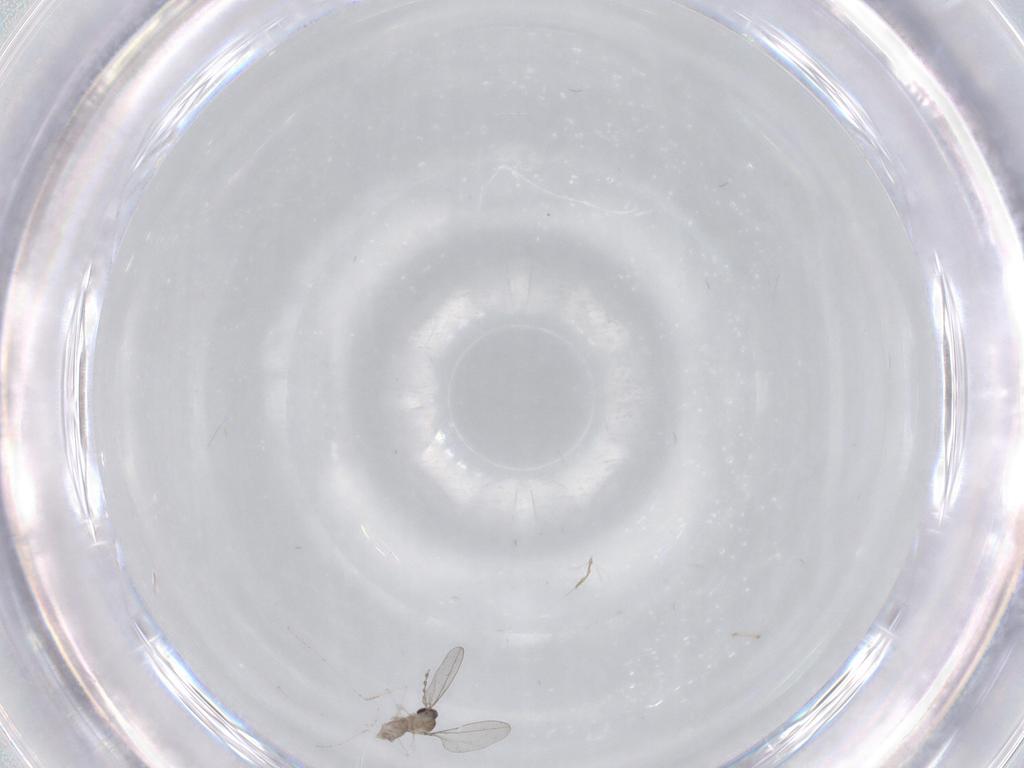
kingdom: Animalia
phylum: Arthropoda
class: Insecta
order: Diptera
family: Cecidomyiidae
